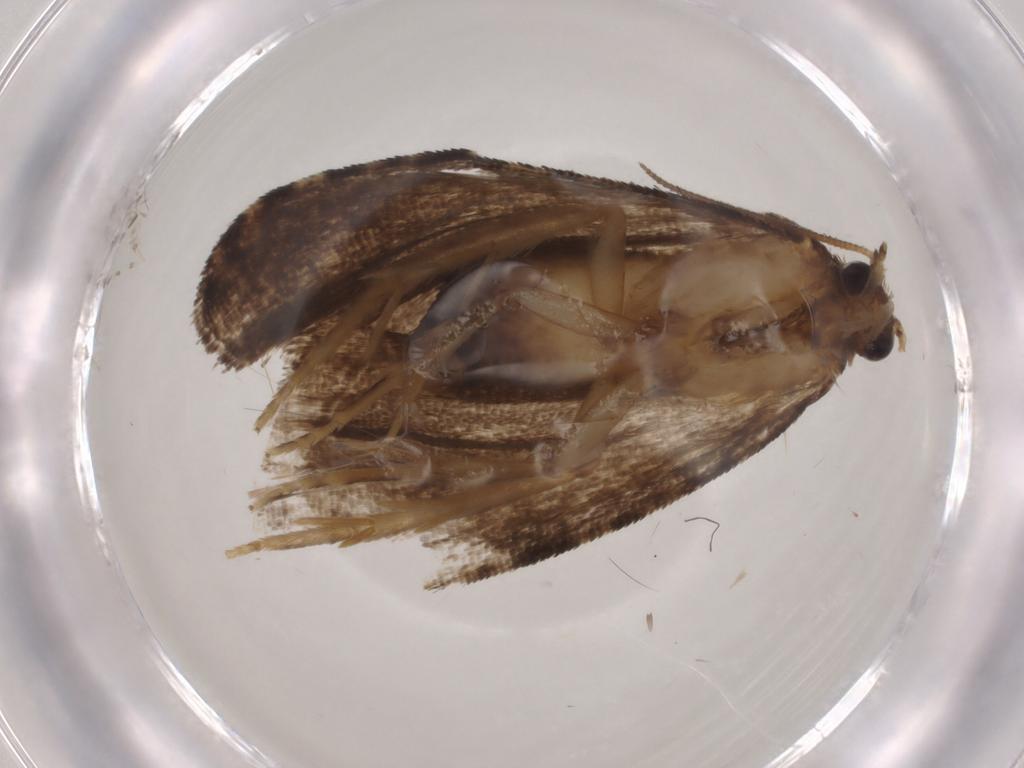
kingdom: Animalia
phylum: Arthropoda
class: Insecta
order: Lepidoptera
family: Tortricidae
